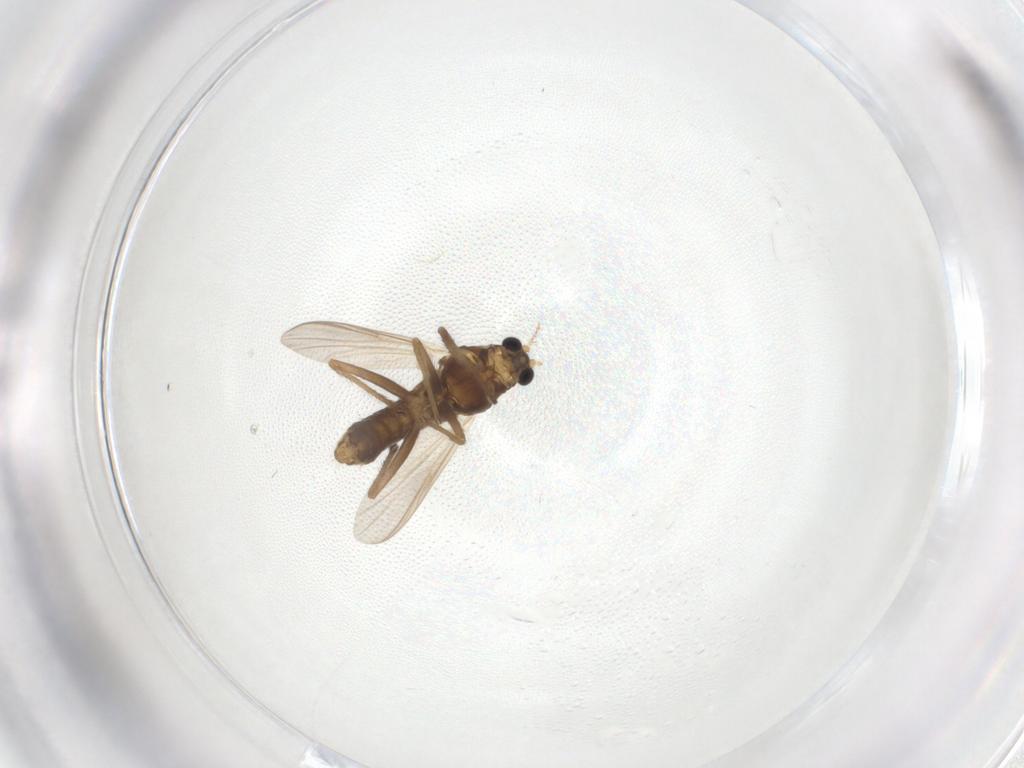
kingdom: Animalia
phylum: Arthropoda
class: Insecta
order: Diptera
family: Chironomidae
